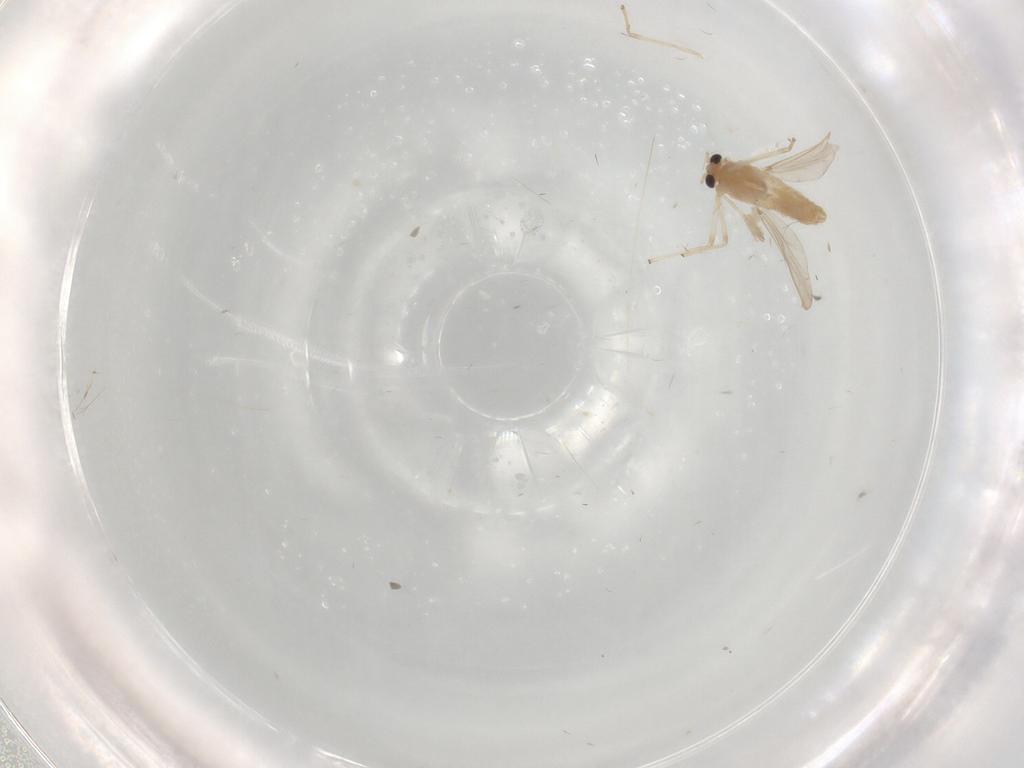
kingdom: Animalia
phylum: Arthropoda
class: Insecta
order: Diptera
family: Chironomidae
